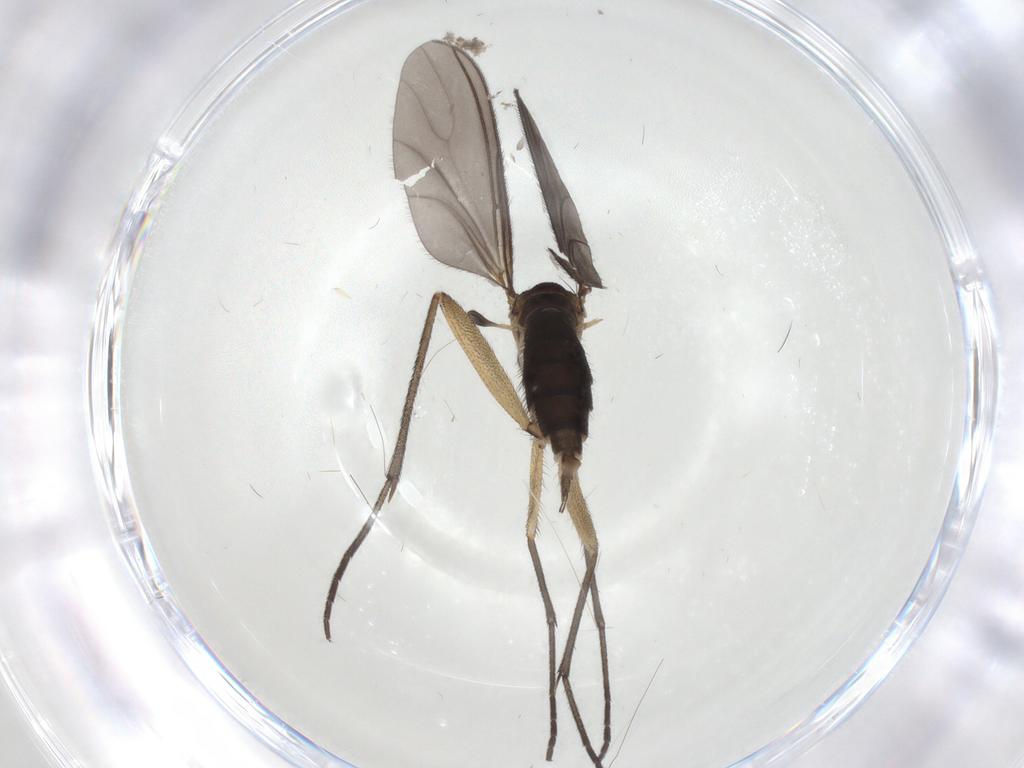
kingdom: Animalia
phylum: Arthropoda
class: Insecta
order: Diptera
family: Sciaridae
